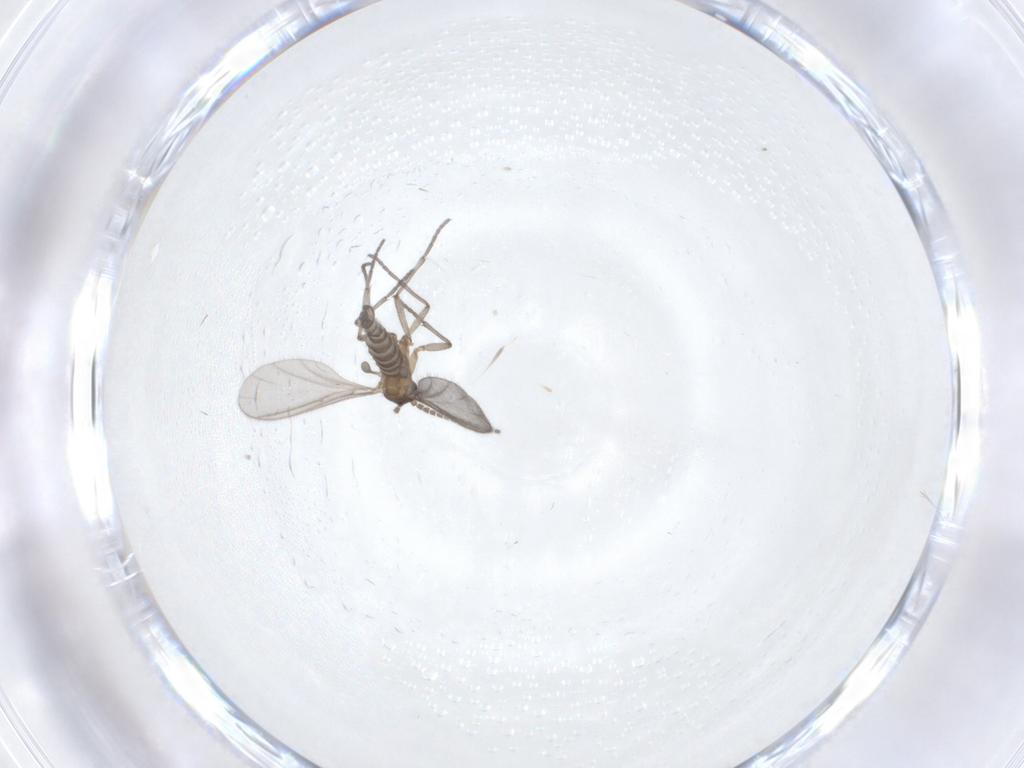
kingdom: Animalia
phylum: Arthropoda
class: Insecta
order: Diptera
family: Sciaridae
